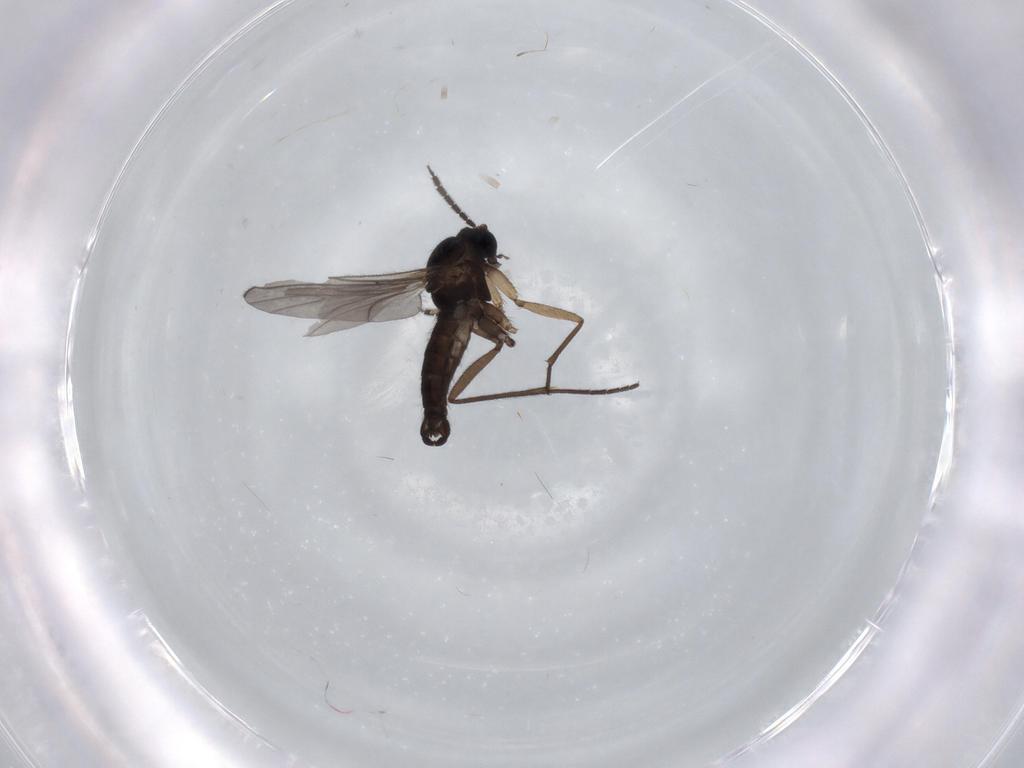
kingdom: Animalia
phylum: Arthropoda
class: Insecta
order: Diptera
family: Sciaridae
